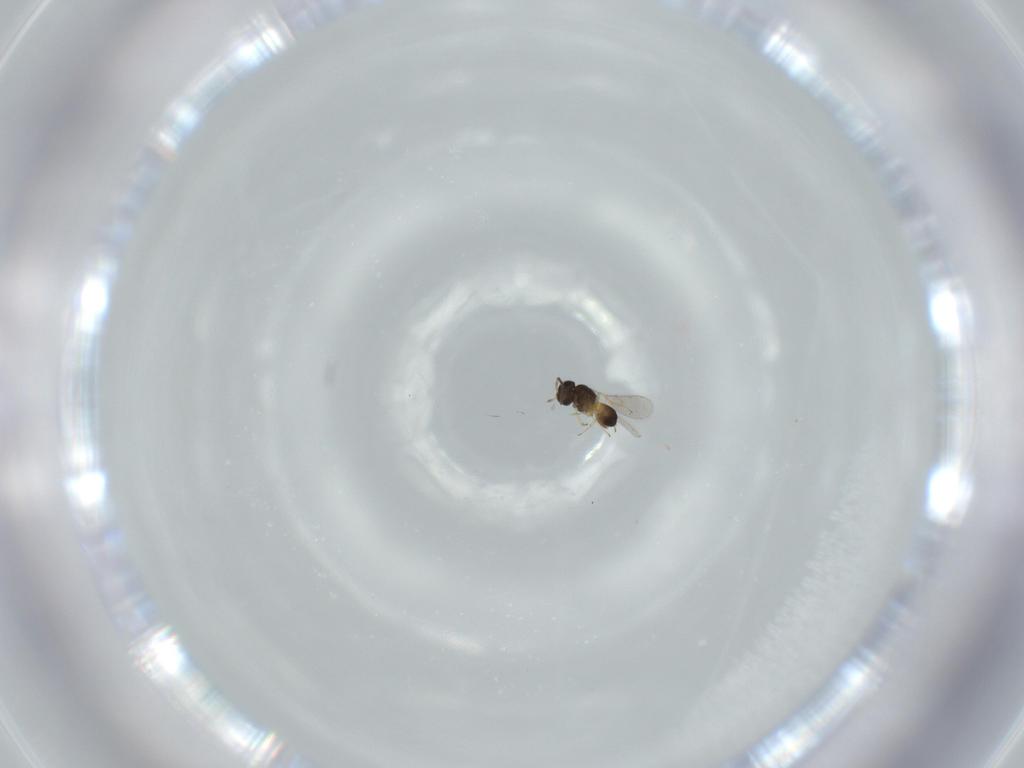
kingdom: Animalia
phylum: Arthropoda
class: Insecta
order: Hymenoptera
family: Scelionidae
